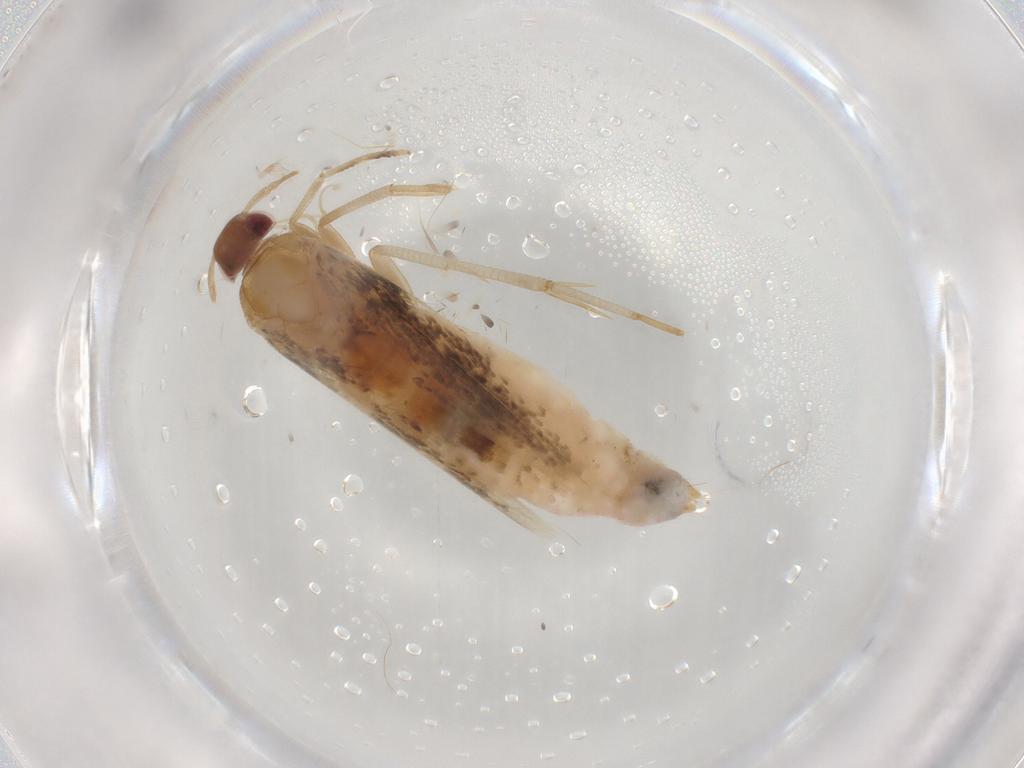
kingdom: Animalia
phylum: Arthropoda
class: Insecta
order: Lepidoptera
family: Cosmopterigidae
